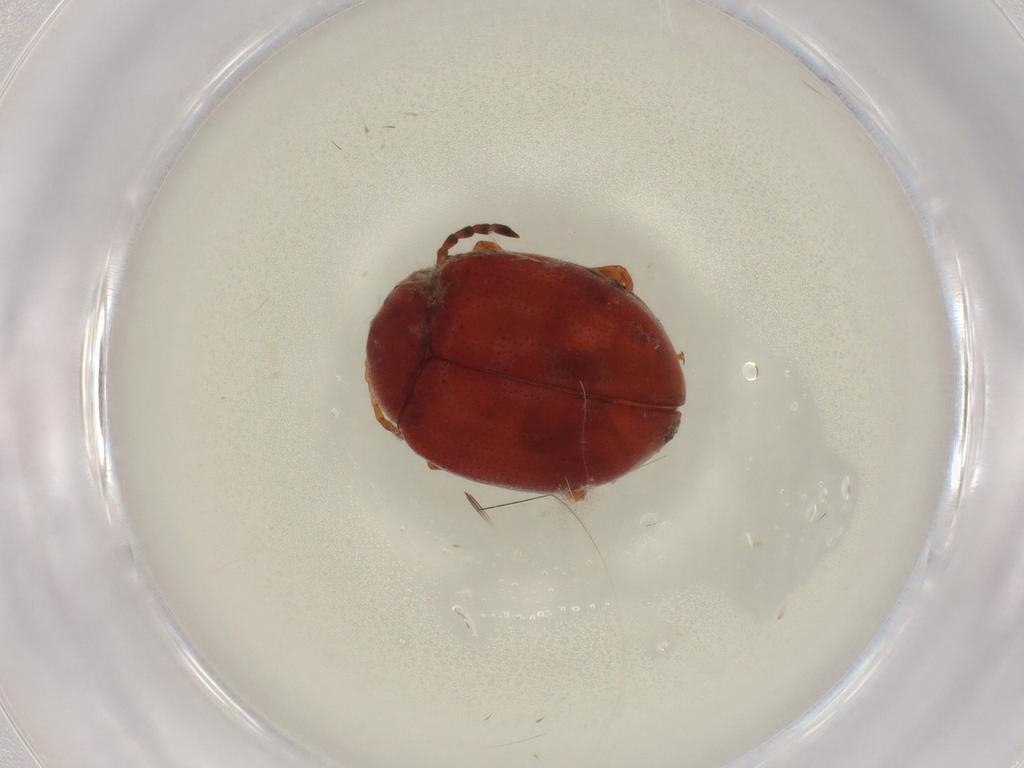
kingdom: Animalia
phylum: Arthropoda
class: Insecta
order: Coleoptera
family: Chrysomelidae
